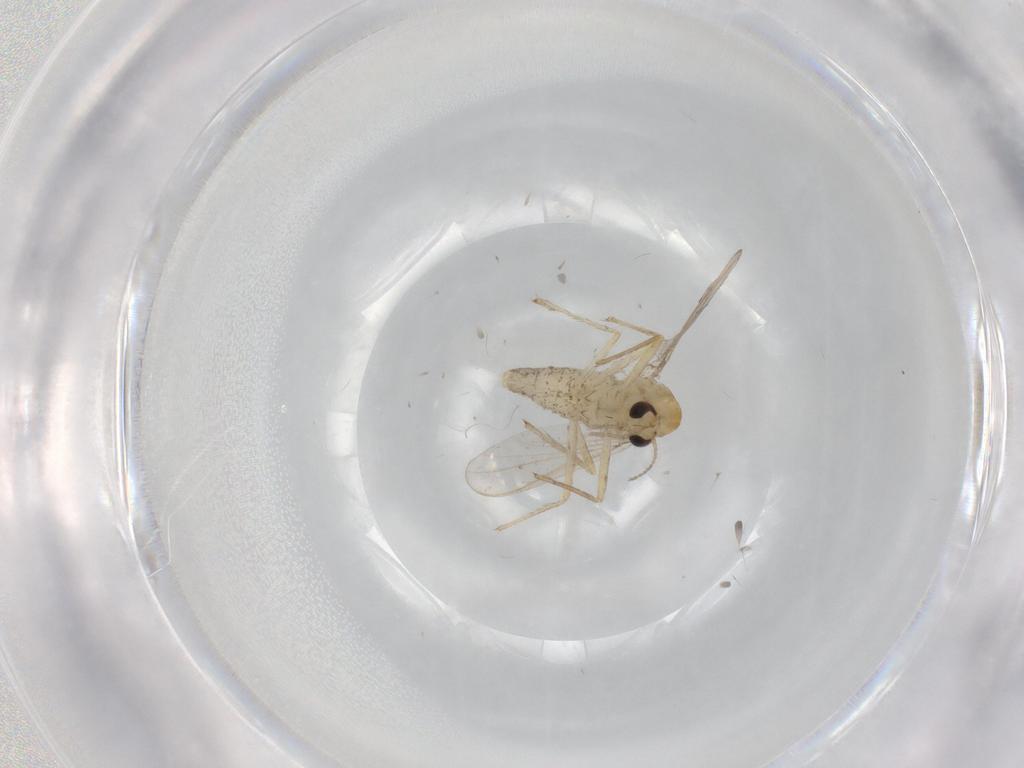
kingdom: Animalia
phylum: Arthropoda
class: Insecta
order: Diptera
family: Chironomidae
